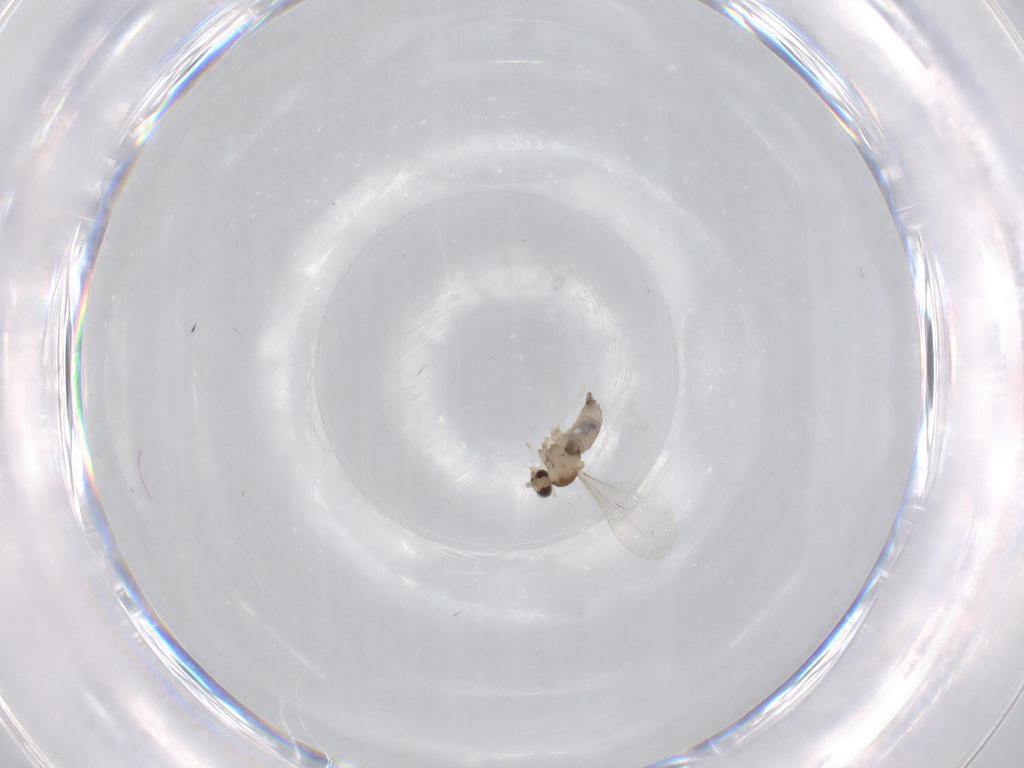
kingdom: Animalia
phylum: Arthropoda
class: Insecta
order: Diptera
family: Cecidomyiidae
